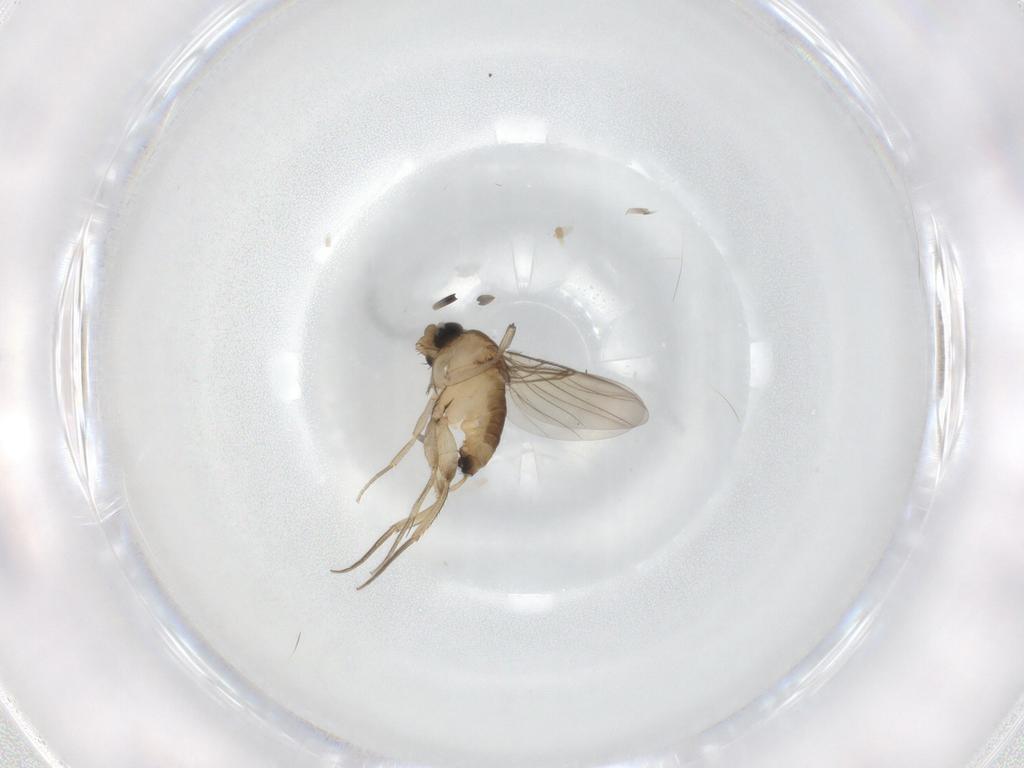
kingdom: Animalia
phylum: Arthropoda
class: Insecta
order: Diptera
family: Phoridae
